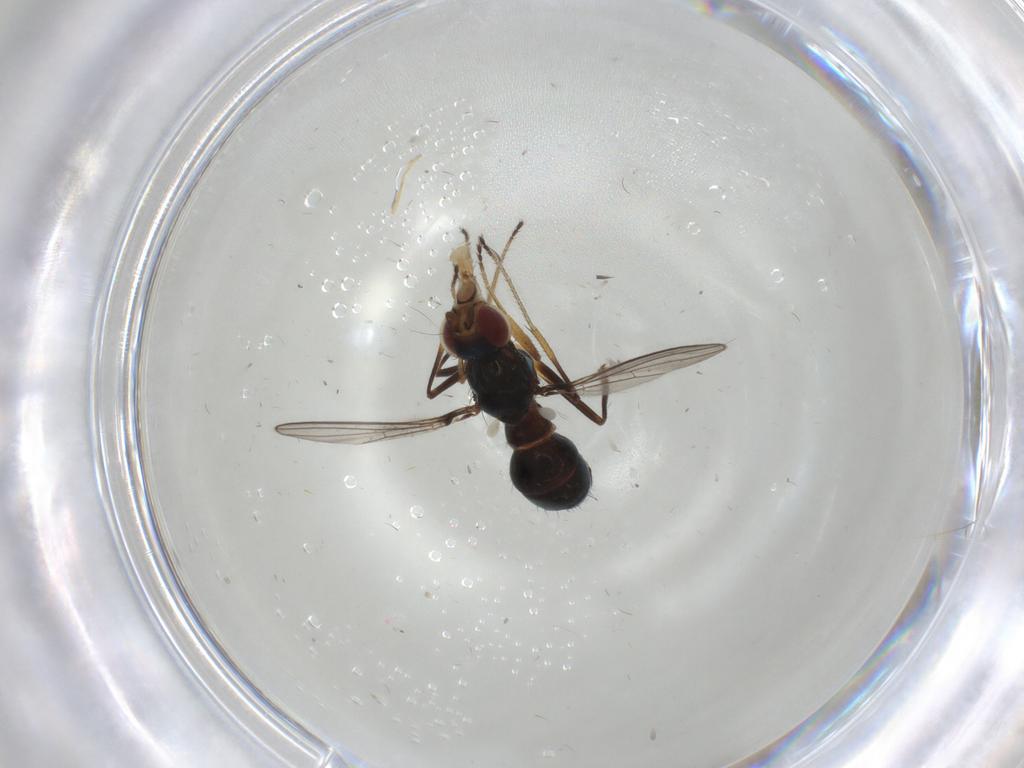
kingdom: Animalia
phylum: Arthropoda
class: Insecta
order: Diptera
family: Sepsidae
